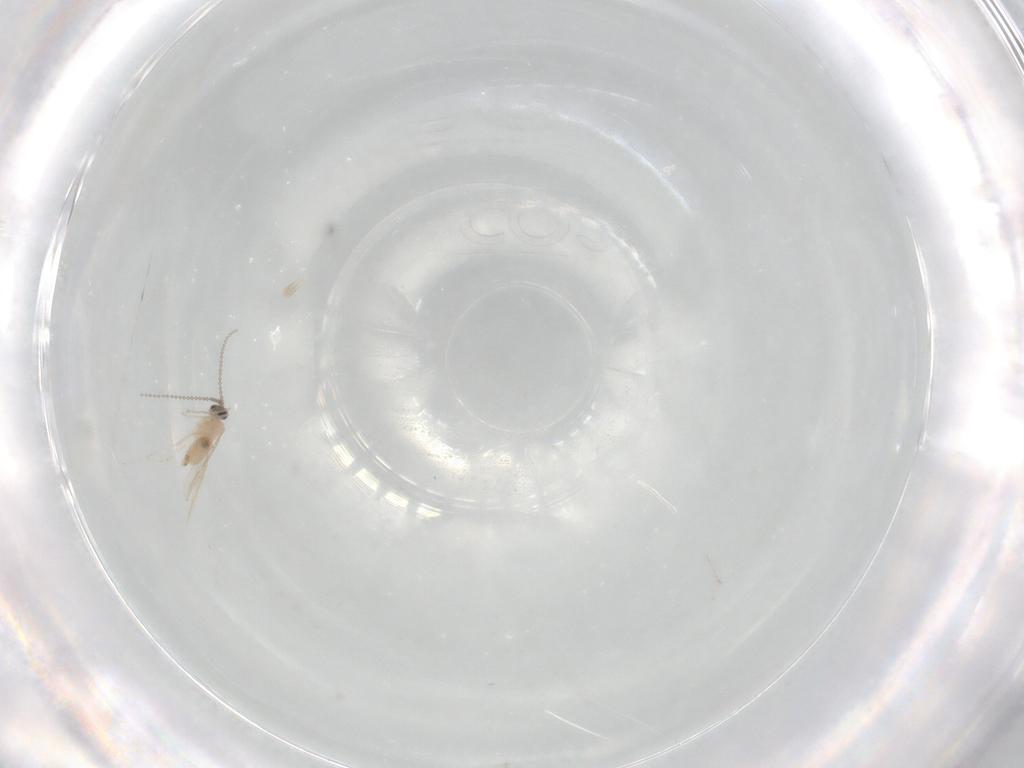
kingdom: Animalia
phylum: Arthropoda
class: Insecta
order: Diptera
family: Cecidomyiidae
